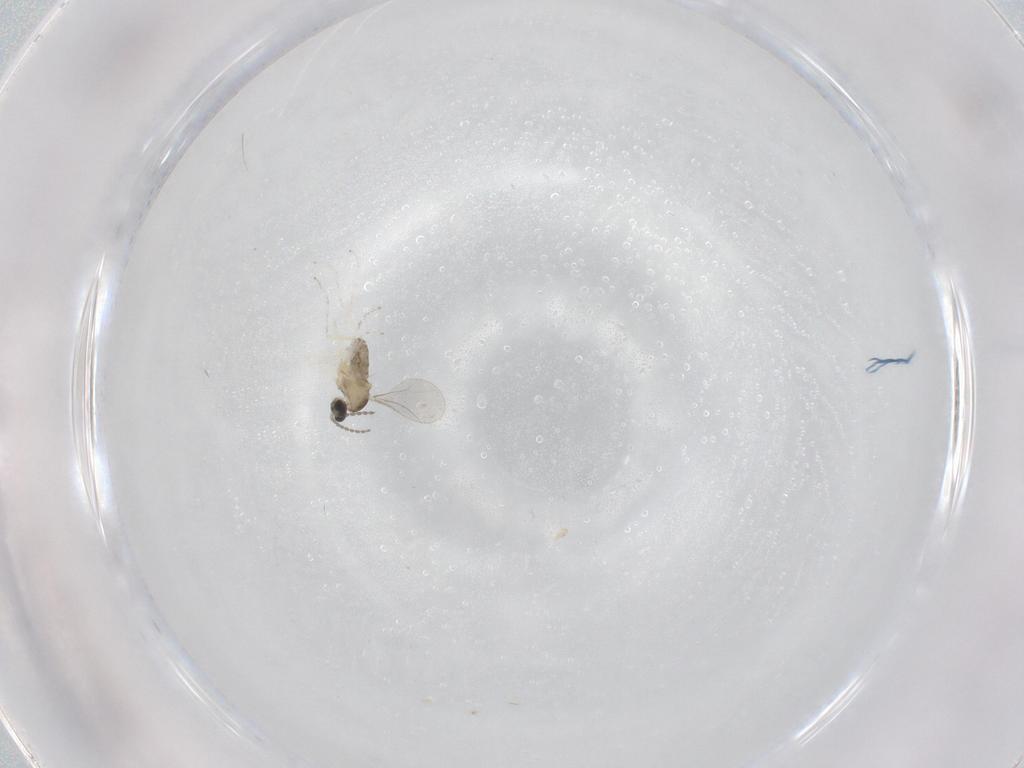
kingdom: Animalia
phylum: Arthropoda
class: Insecta
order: Diptera
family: Cecidomyiidae
